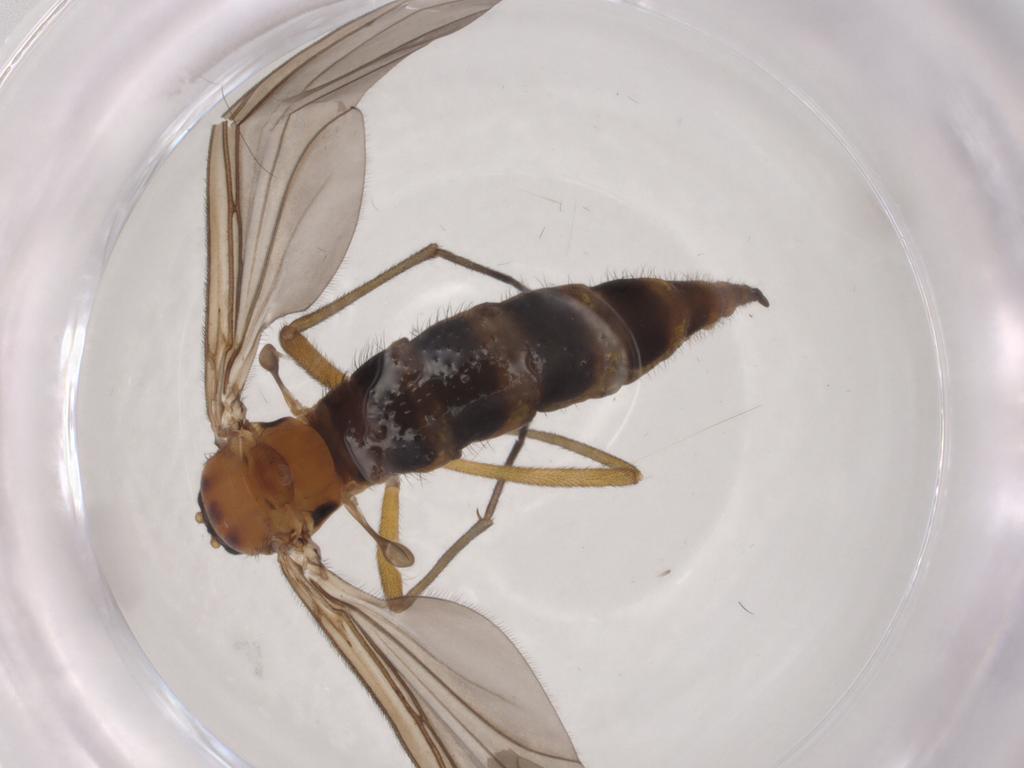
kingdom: Animalia
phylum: Arthropoda
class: Insecta
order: Diptera
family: Sciaridae
